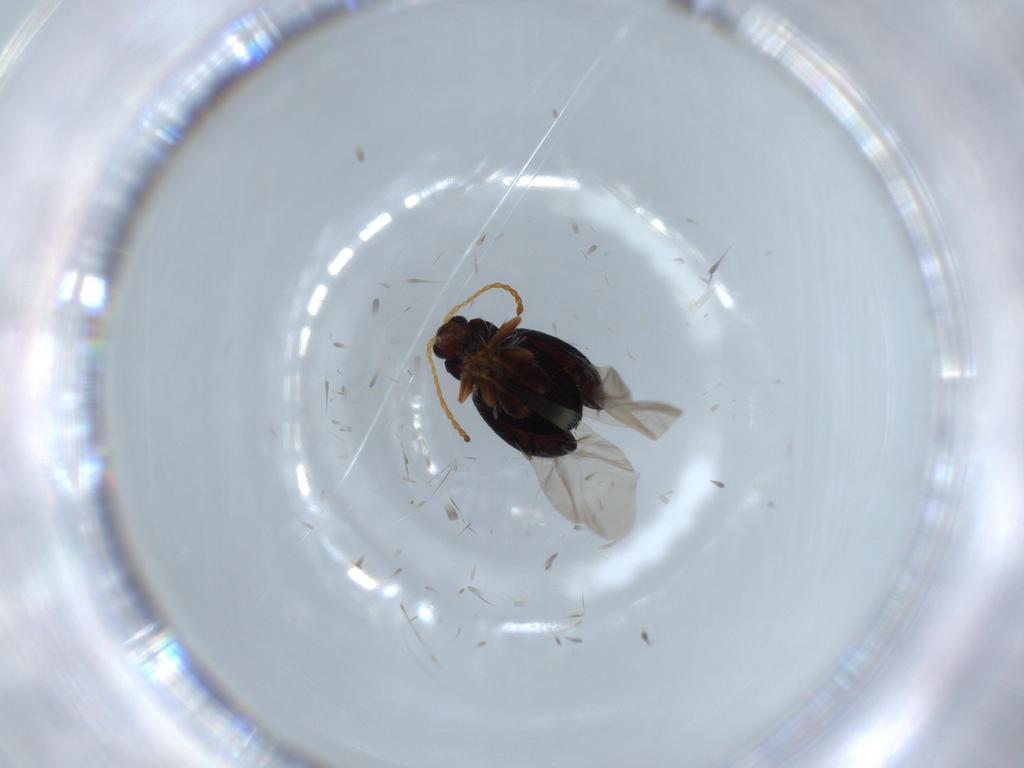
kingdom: Animalia
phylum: Arthropoda
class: Insecta
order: Coleoptera
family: Chrysomelidae
